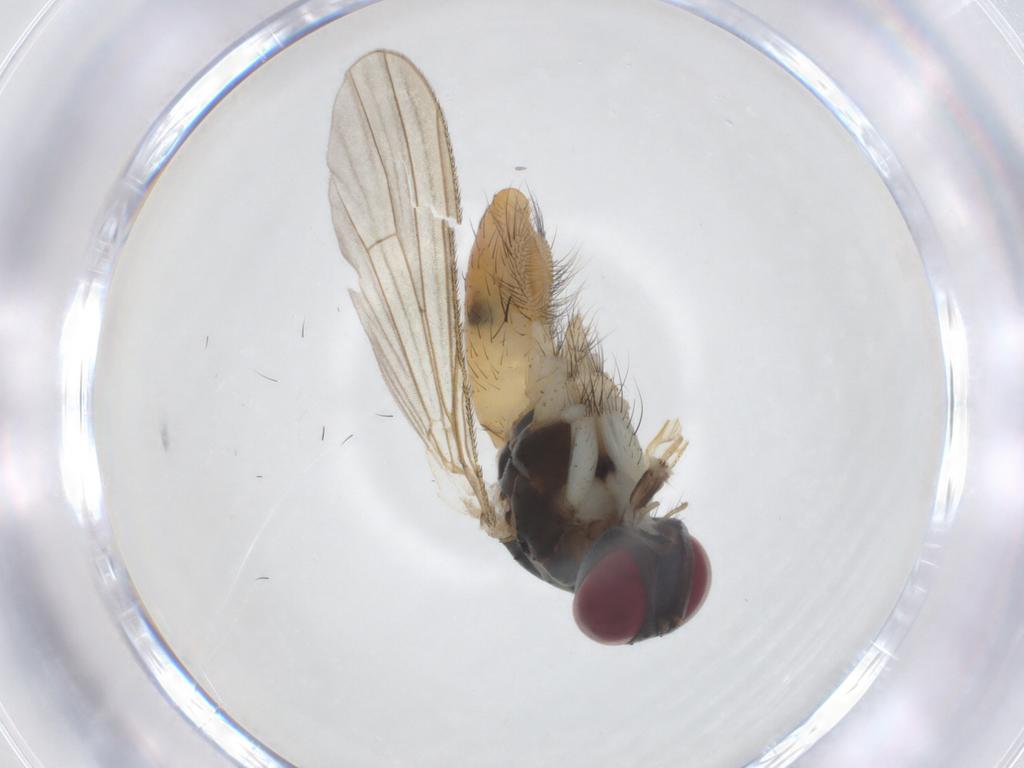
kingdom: Animalia
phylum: Arthropoda
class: Insecta
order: Diptera
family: Muscidae
